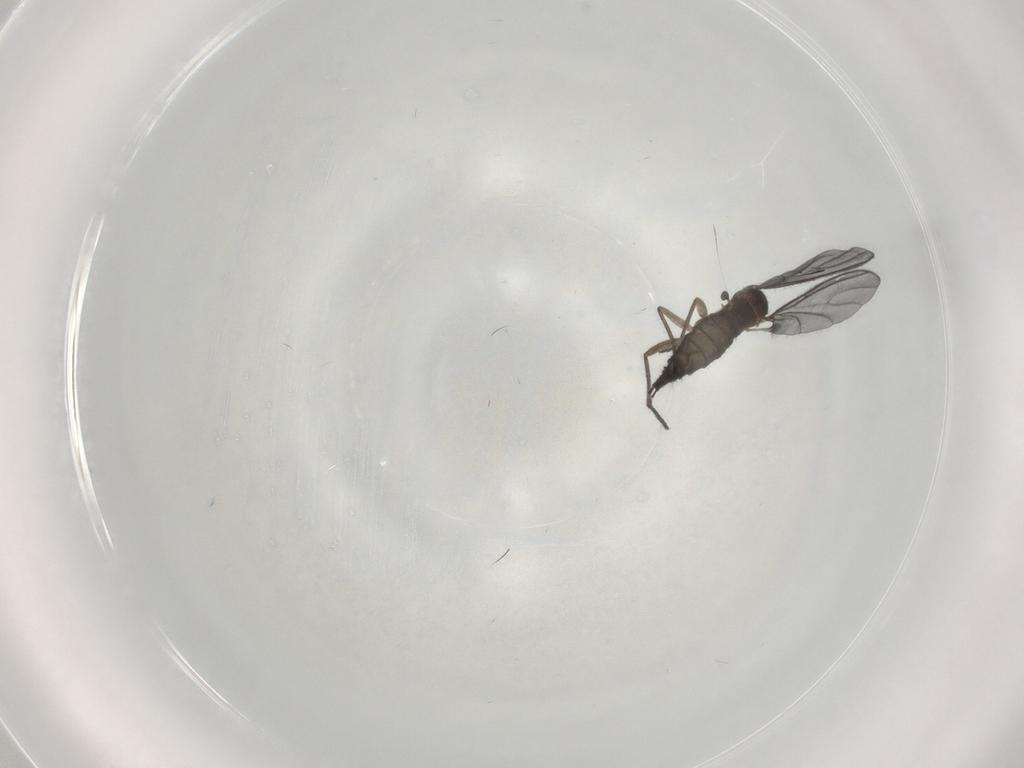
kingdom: Animalia
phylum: Arthropoda
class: Insecta
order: Diptera
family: Sciaridae
